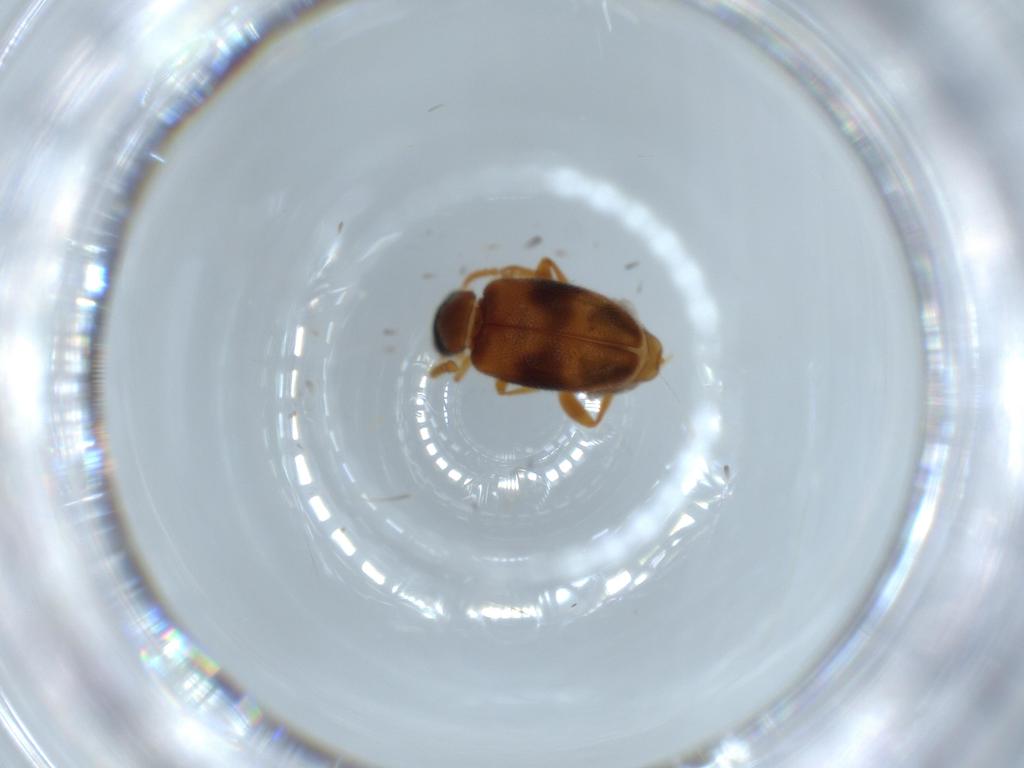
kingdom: Animalia
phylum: Arthropoda
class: Insecta
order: Coleoptera
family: Aderidae
